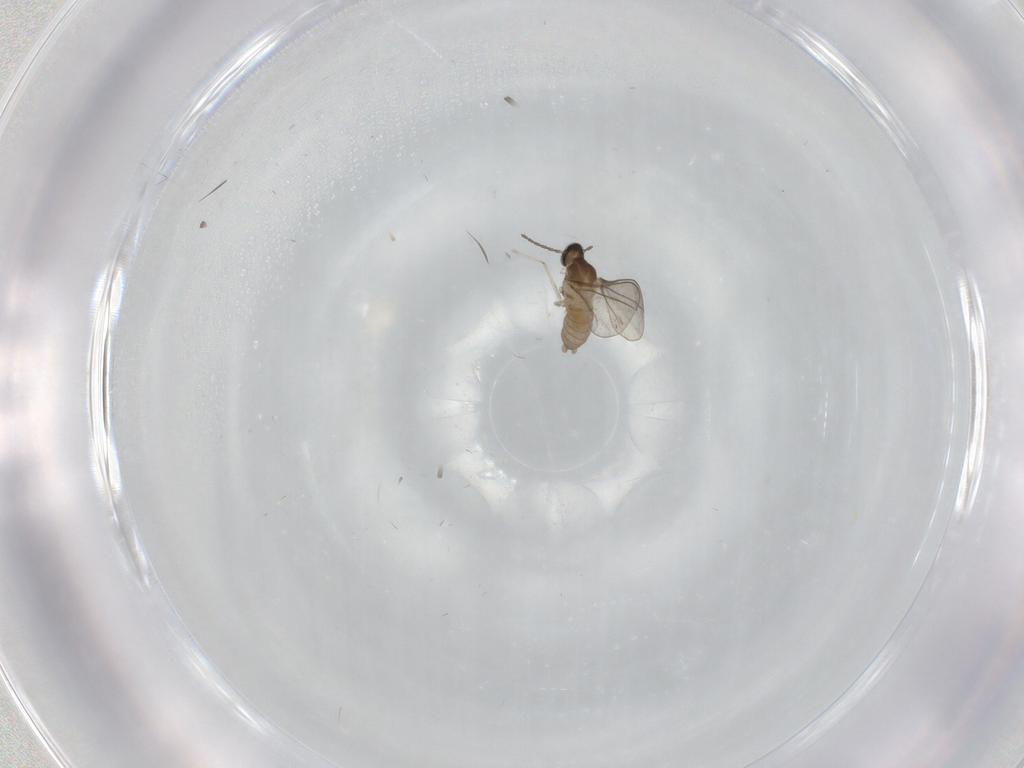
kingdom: Animalia
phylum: Arthropoda
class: Insecta
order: Diptera
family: Cecidomyiidae
